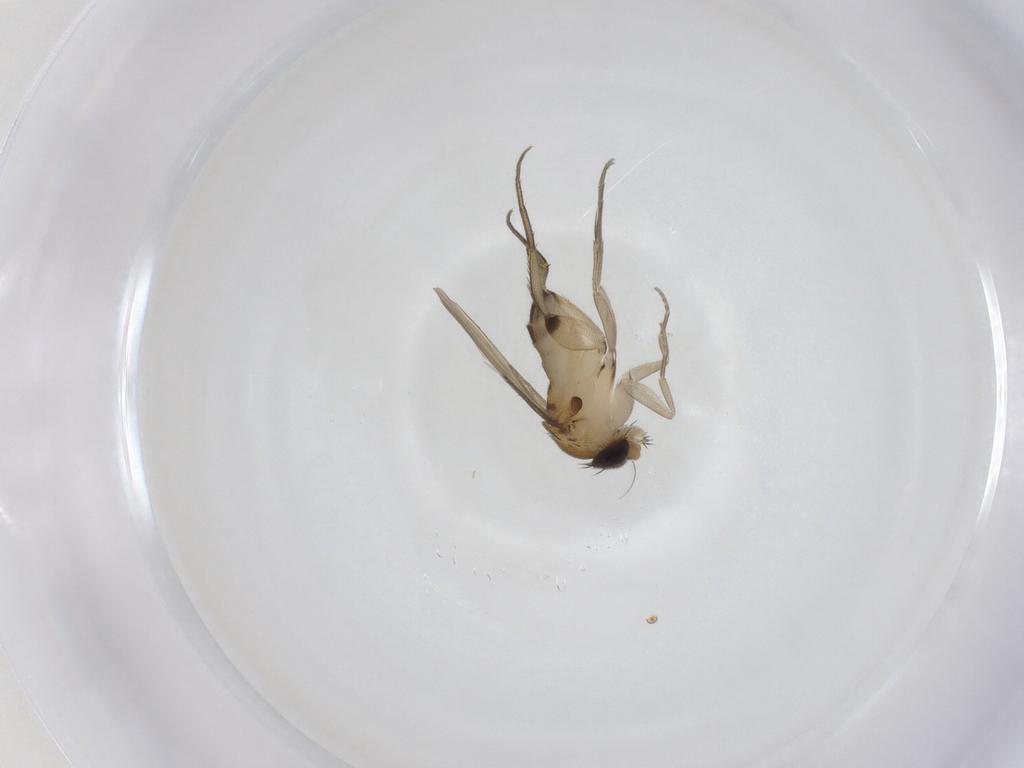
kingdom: Animalia
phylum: Arthropoda
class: Insecta
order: Diptera
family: Phoridae
